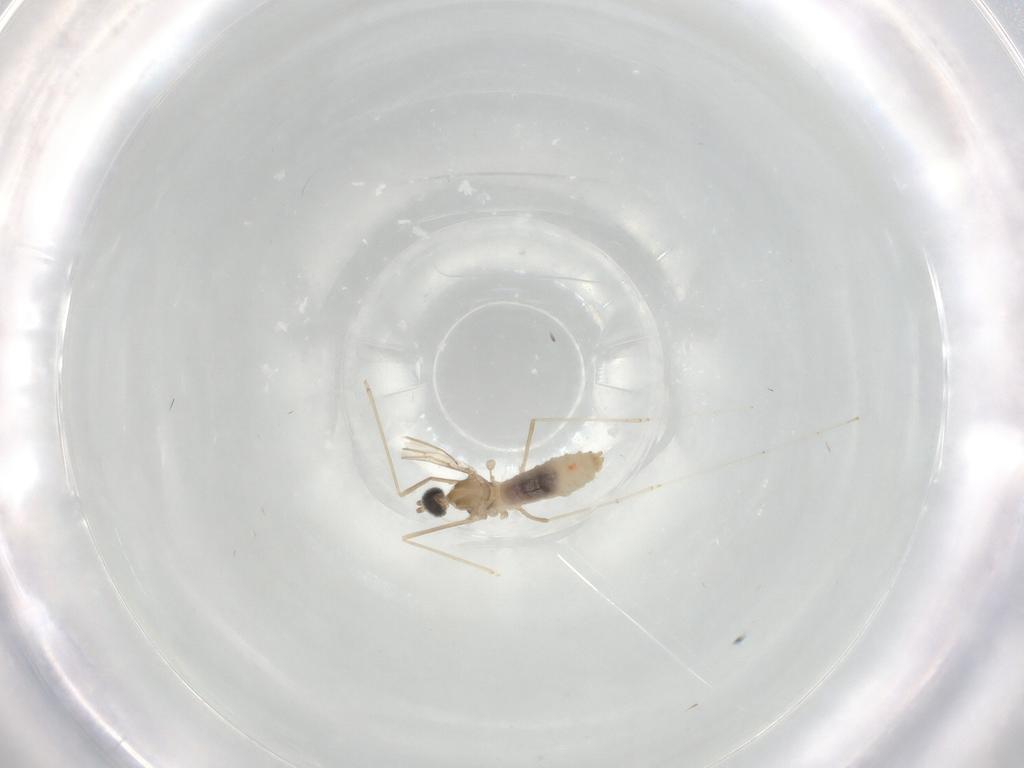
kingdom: Animalia
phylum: Arthropoda
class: Insecta
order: Diptera
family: Cecidomyiidae
